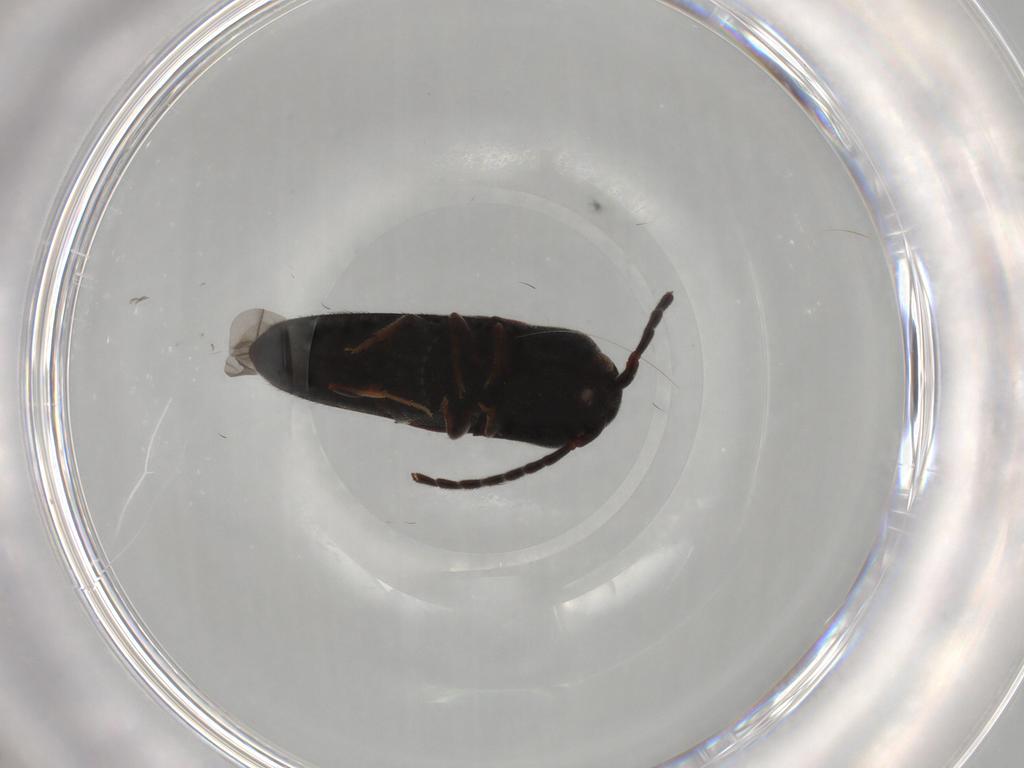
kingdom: Animalia
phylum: Arthropoda
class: Insecta
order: Coleoptera
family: Eucnemidae
